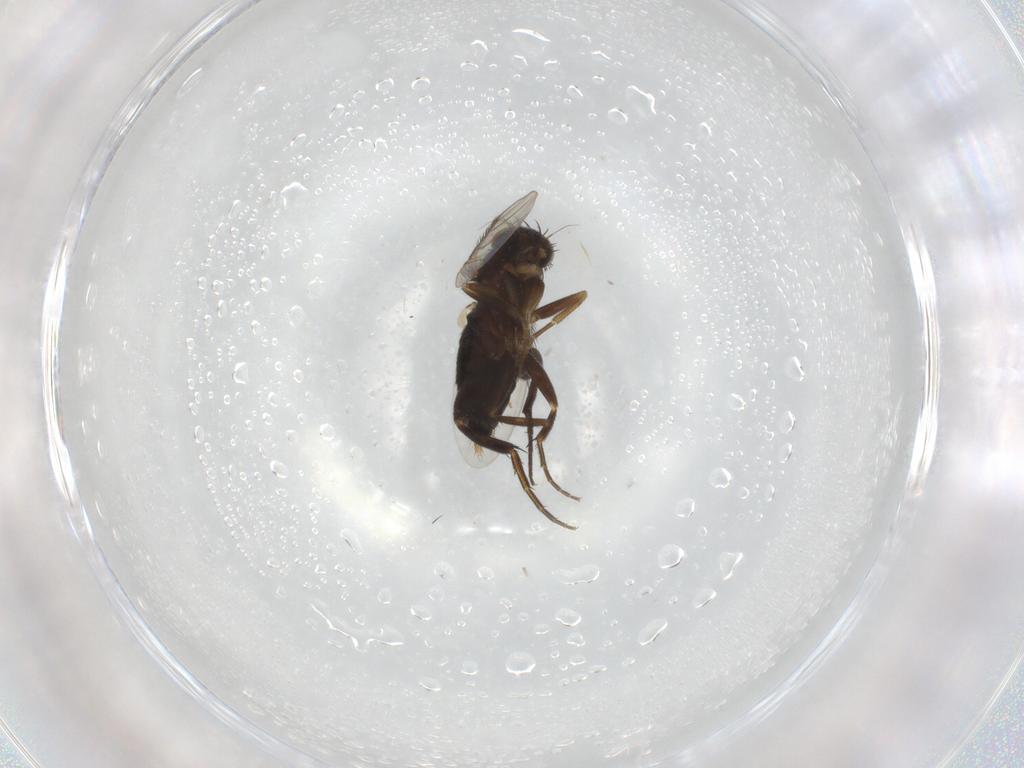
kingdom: Animalia
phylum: Arthropoda
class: Insecta
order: Diptera
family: Phoridae
